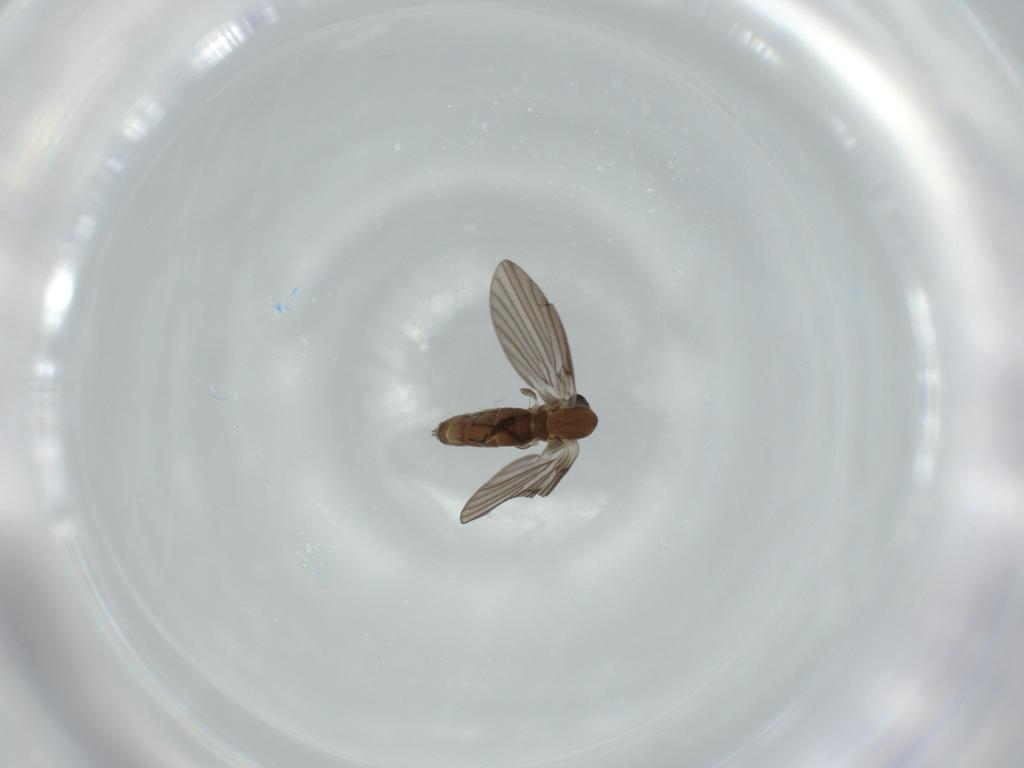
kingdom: Animalia
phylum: Arthropoda
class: Insecta
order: Diptera
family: Psychodidae
